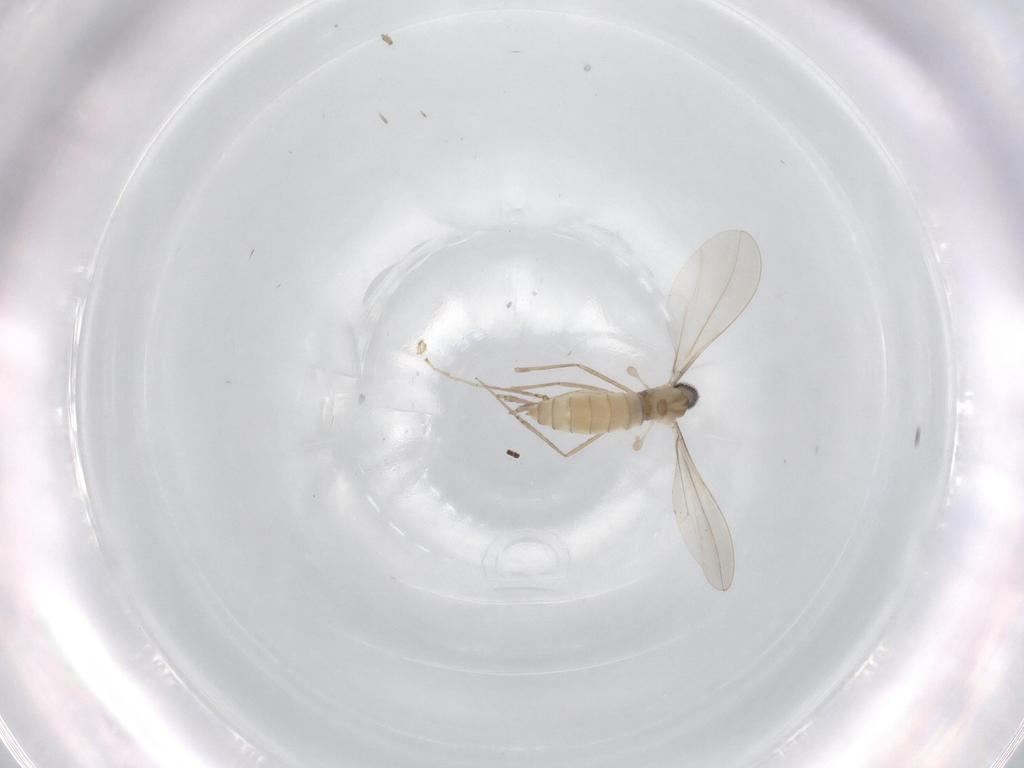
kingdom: Animalia
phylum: Arthropoda
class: Insecta
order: Diptera
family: Cecidomyiidae
